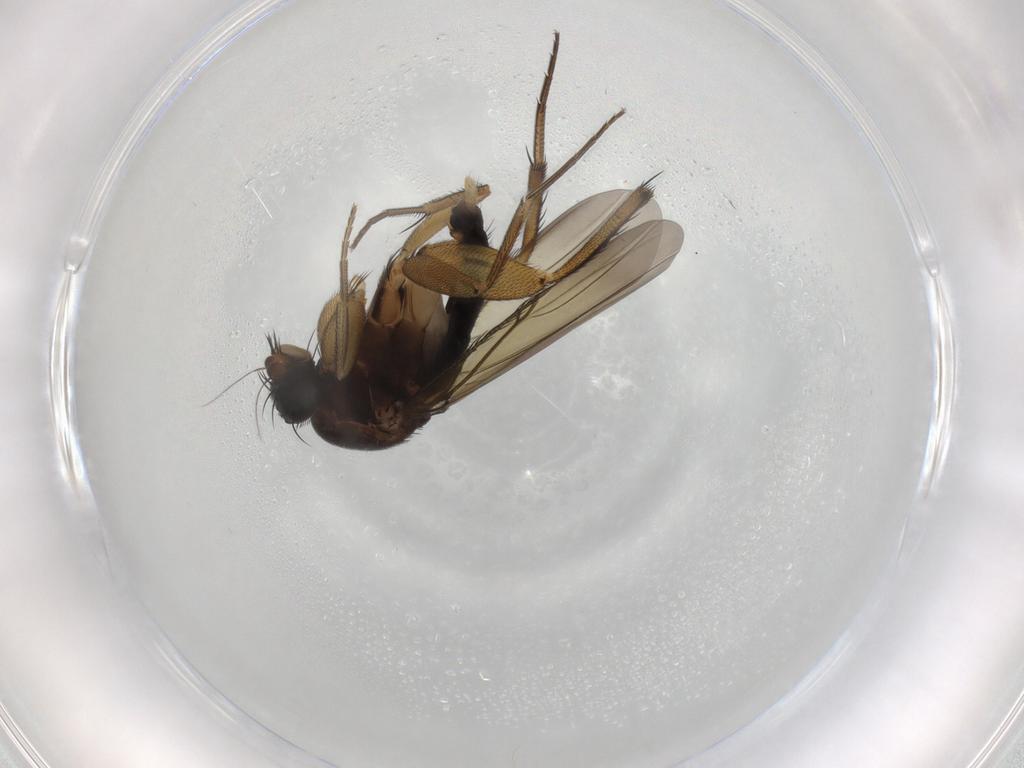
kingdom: Animalia
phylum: Arthropoda
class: Insecta
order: Diptera
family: Phoridae
